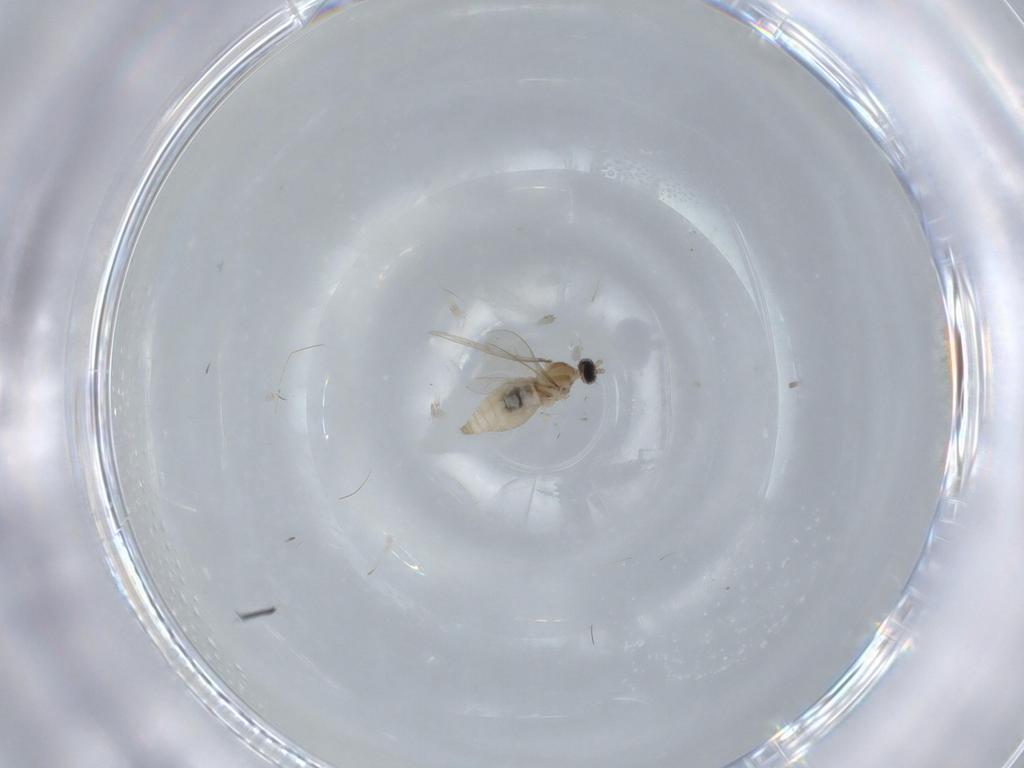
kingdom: Animalia
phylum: Arthropoda
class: Insecta
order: Diptera
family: Cecidomyiidae
